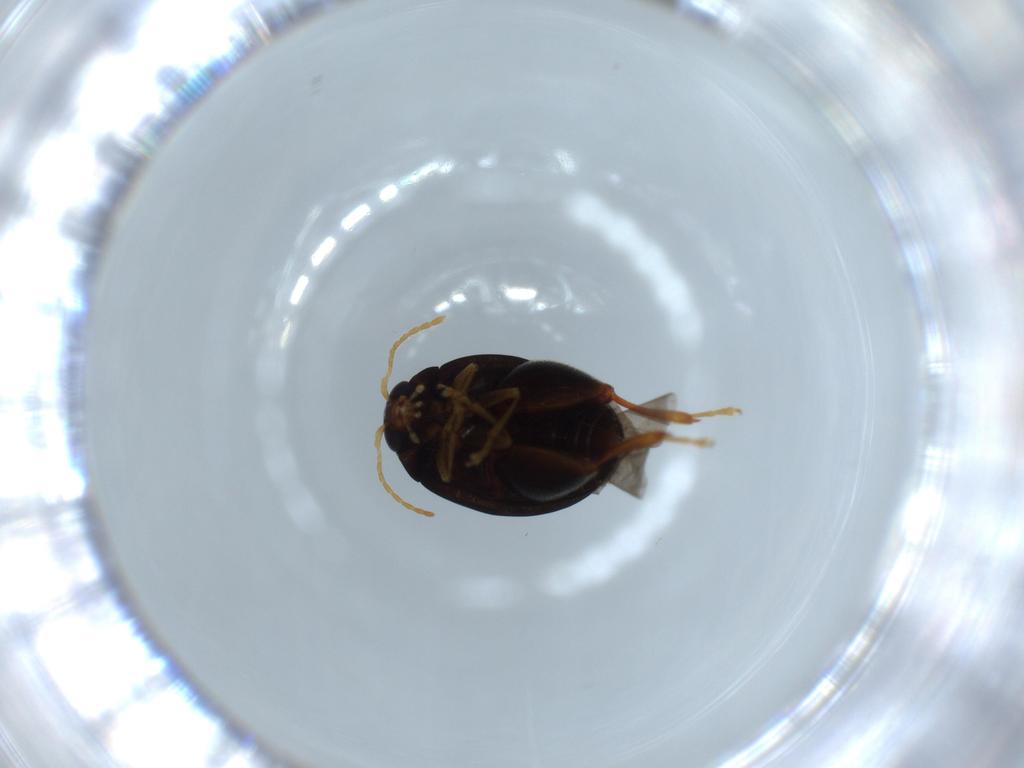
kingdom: Animalia
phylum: Arthropoda
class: Insecta
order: Coleoptera
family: Chrysomelidae
